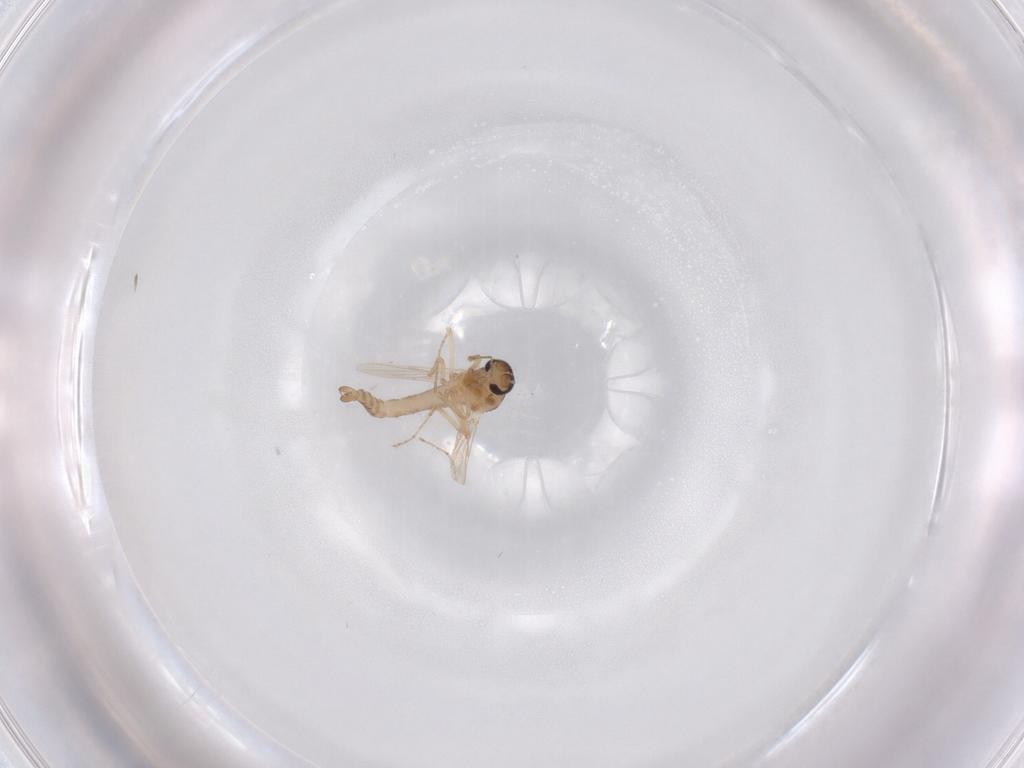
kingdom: Animalia
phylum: Arthropoda
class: Insecta
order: Diptera
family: Ceratopogonidae
